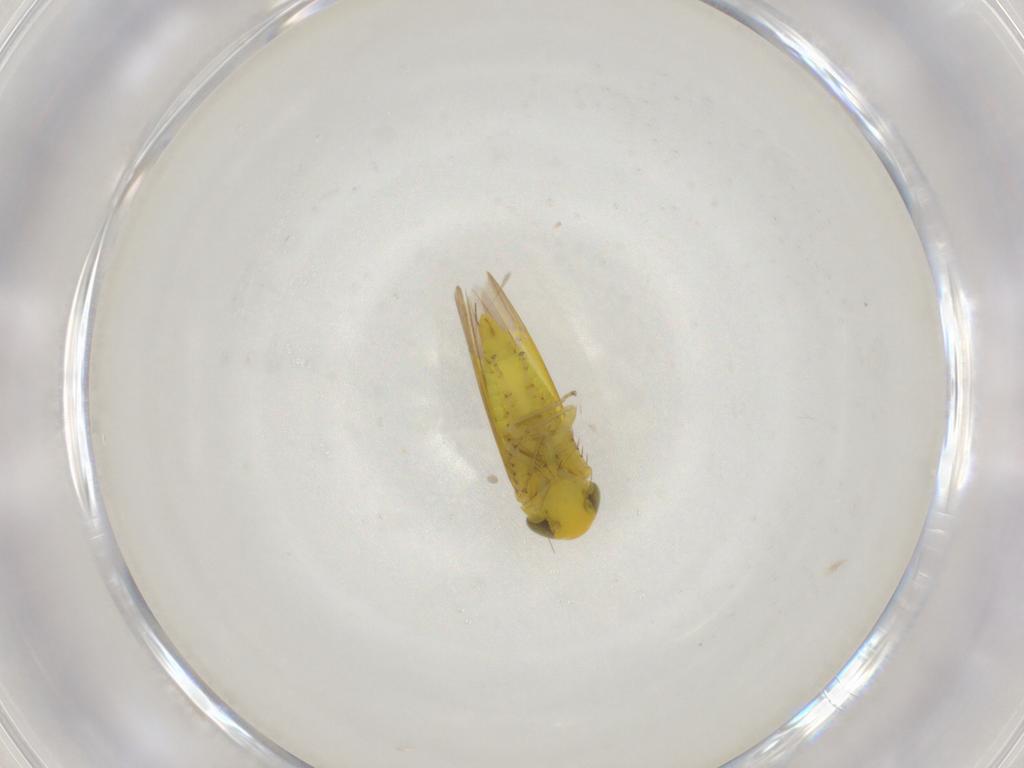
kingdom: Animalia
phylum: Arthropoda
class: Insecta
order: Hemiptera
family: Cicadellidae
